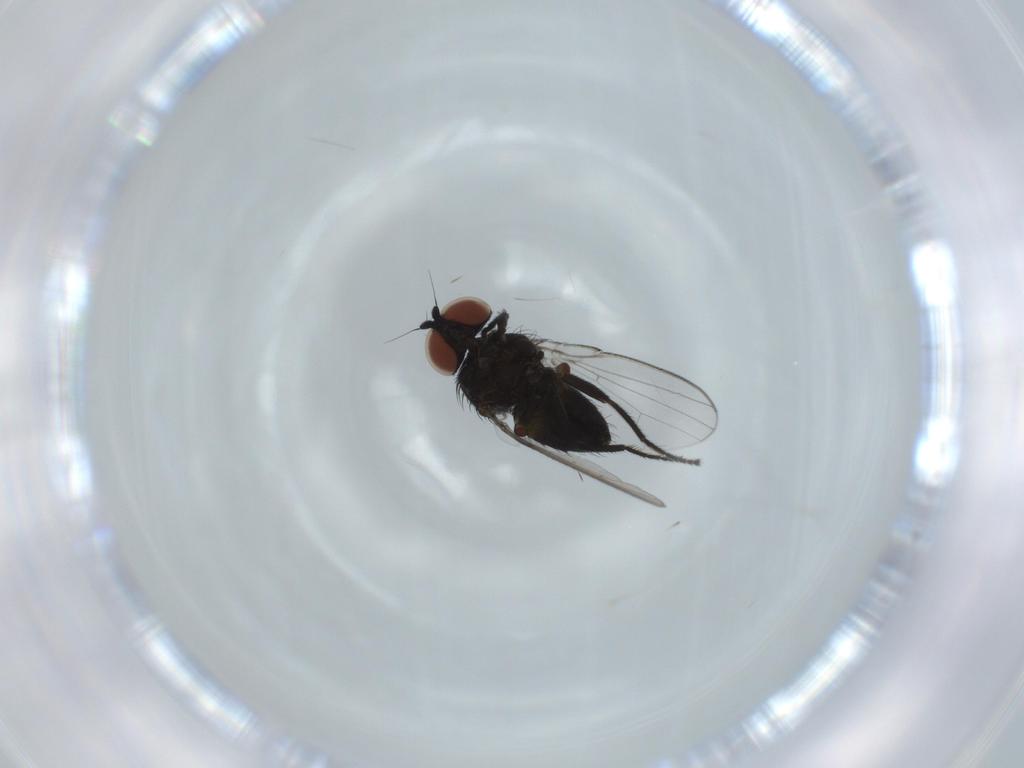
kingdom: Animalia
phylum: Arthropoda
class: Insecta
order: Diptera
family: Milichiidae
